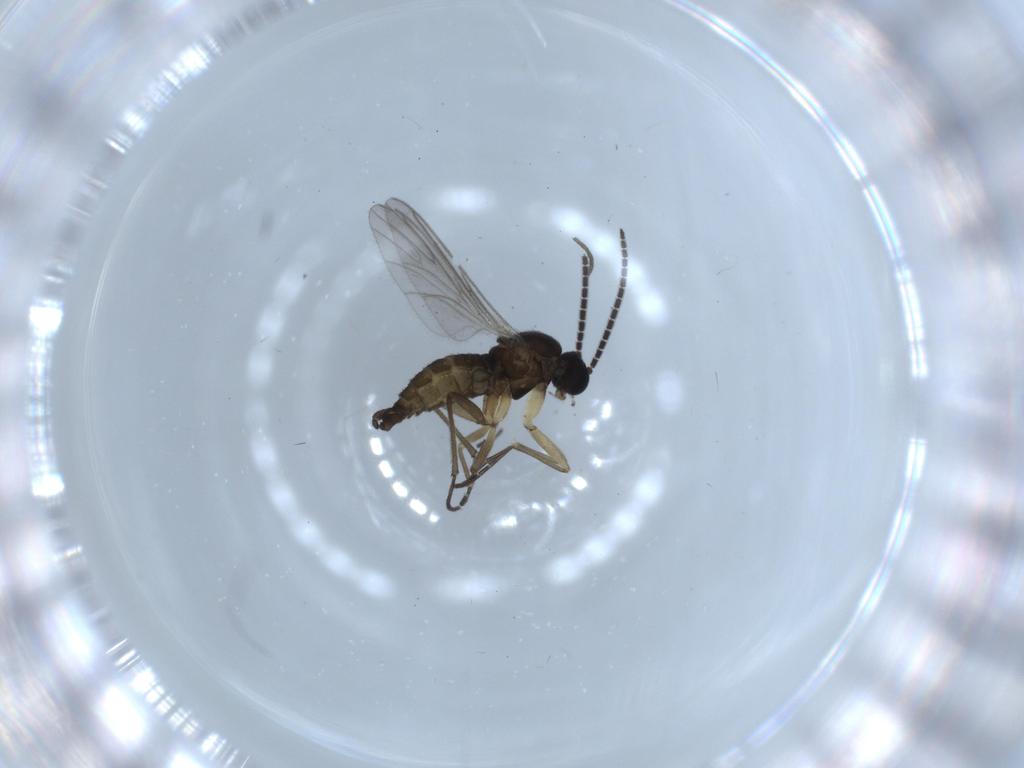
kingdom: Animalia
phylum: Arthropoda
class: Insecta
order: Diptera
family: Sciaridae
